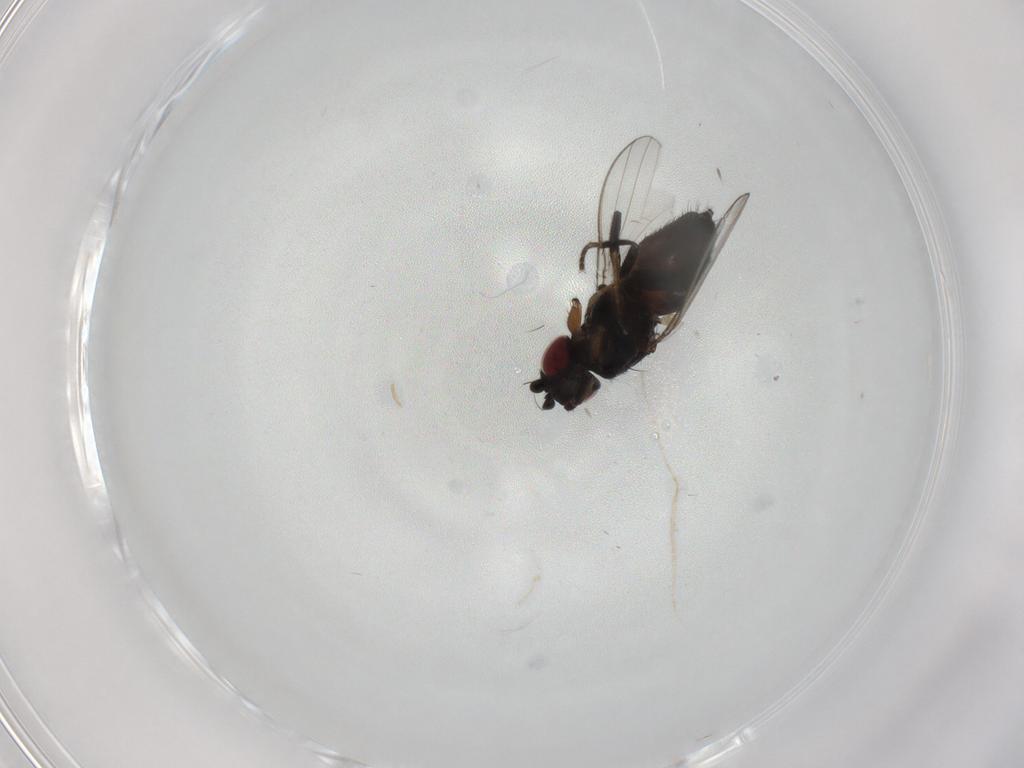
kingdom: Animalia
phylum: Arthropoda
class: Insecta
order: Diptera
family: Milichiidae
